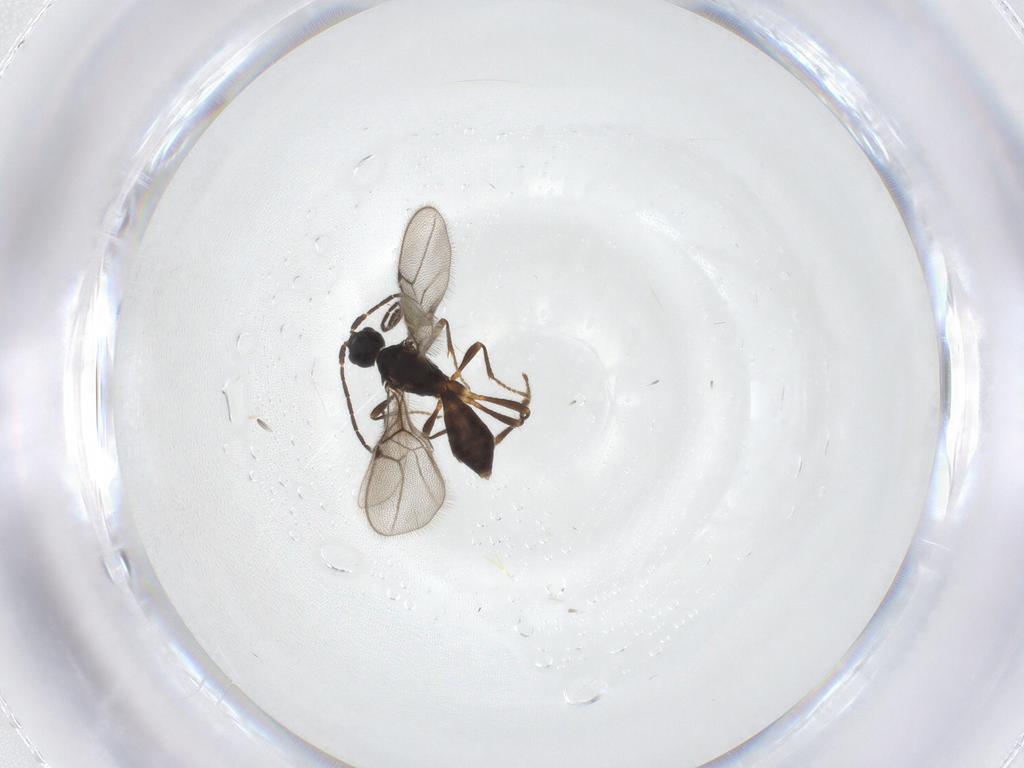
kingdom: Animalia
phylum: Arthropoda
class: Insecta
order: Hymenoptera
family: Braconidae
